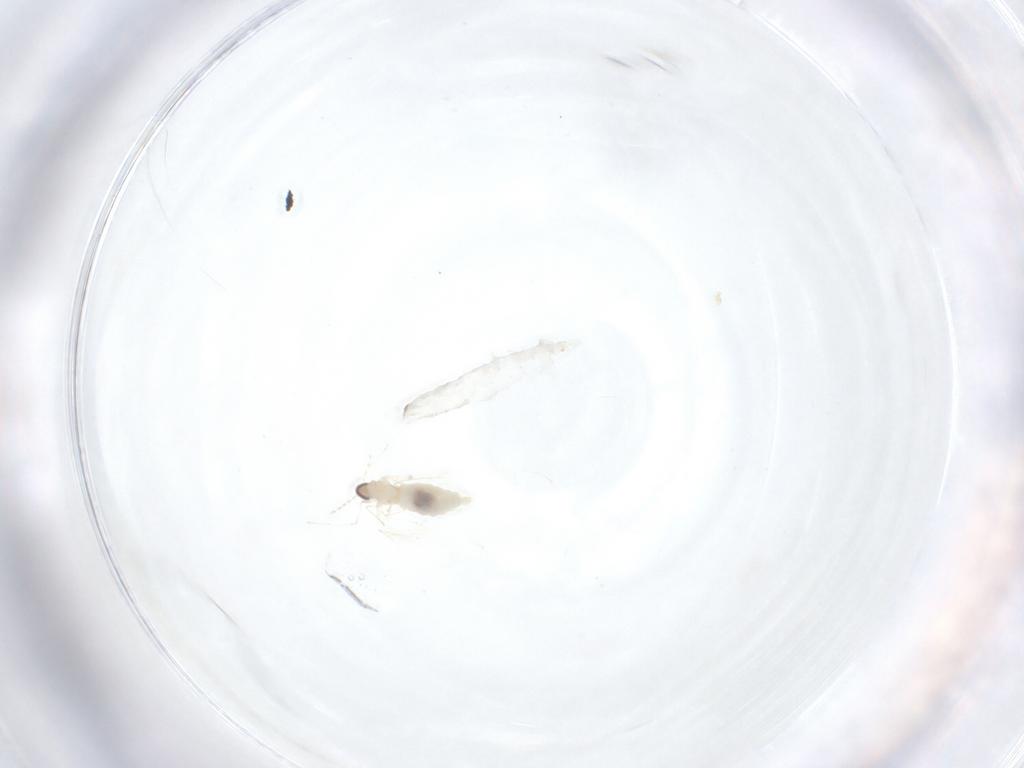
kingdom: Animalia
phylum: Arthropoda
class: Insecta
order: Diptera
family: Cecidomyiidae
